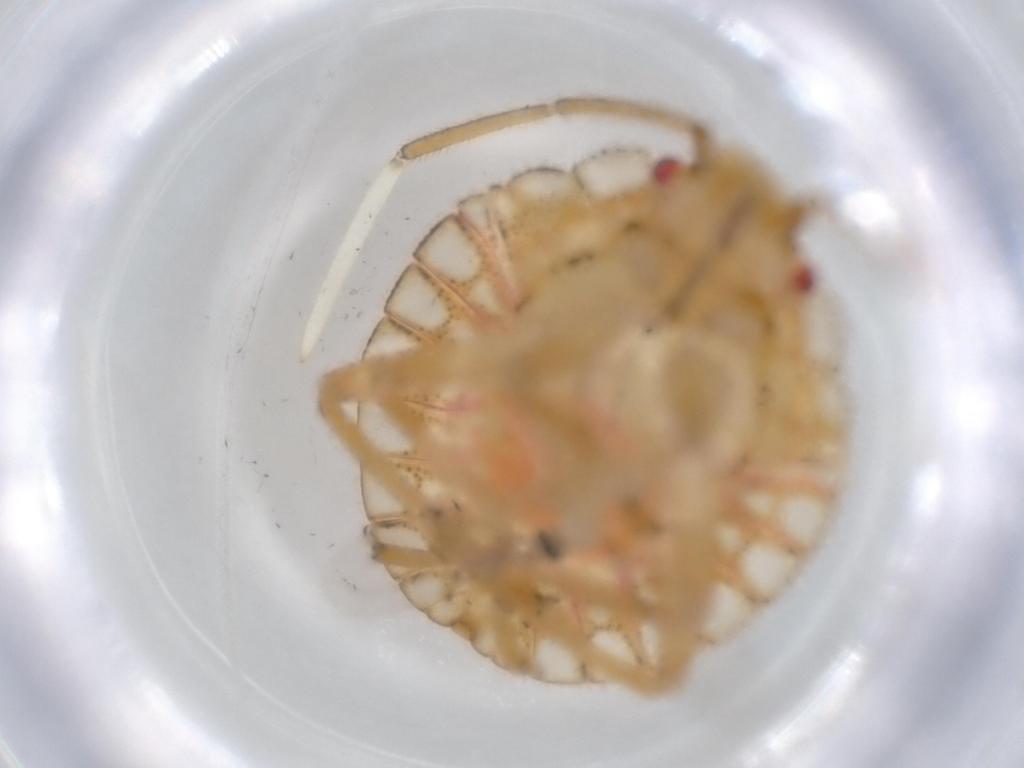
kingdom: Animalia
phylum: Arthropoda
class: Insecta
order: Hemiptera
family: Pentatomidae
